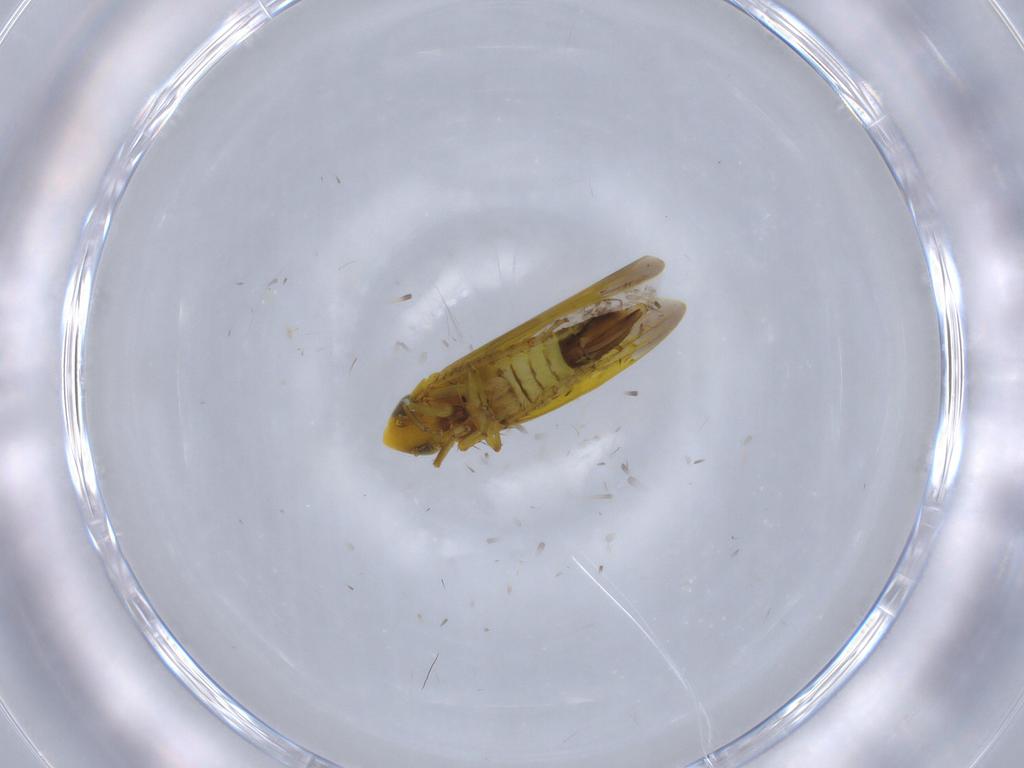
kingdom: Animalia
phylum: Arthropoda
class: Insecta
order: Hemiptera
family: Cicadellidae
